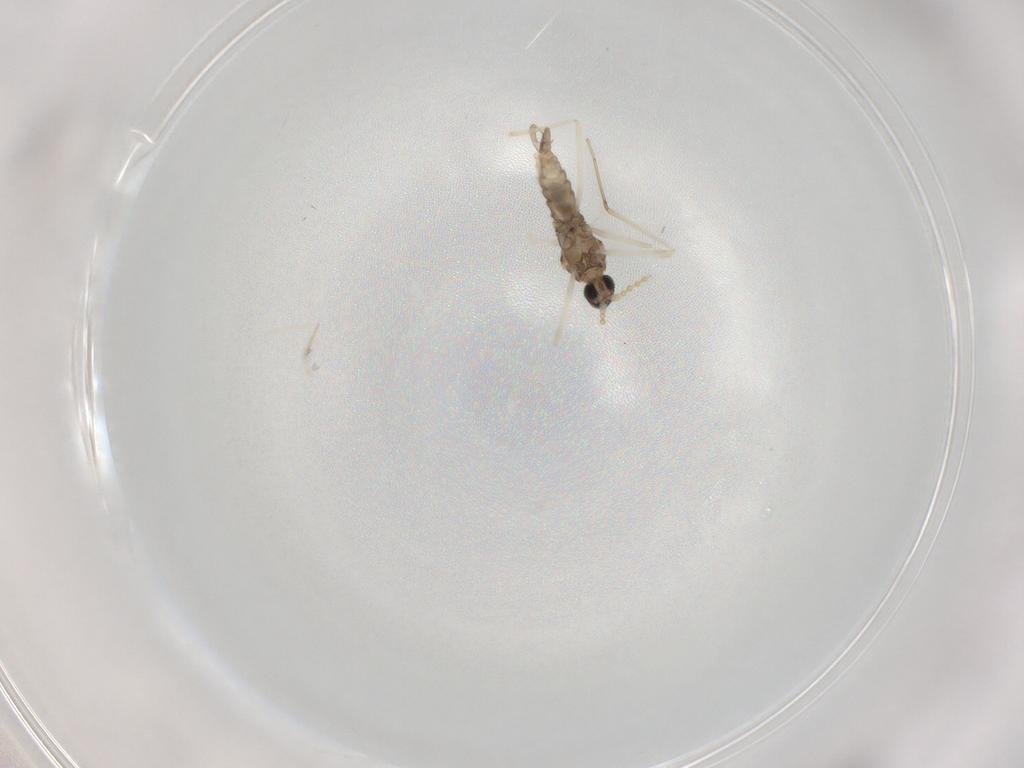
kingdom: Animalia
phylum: Arthropoda
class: Insecta
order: Diptera
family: Cecidomyiidae
